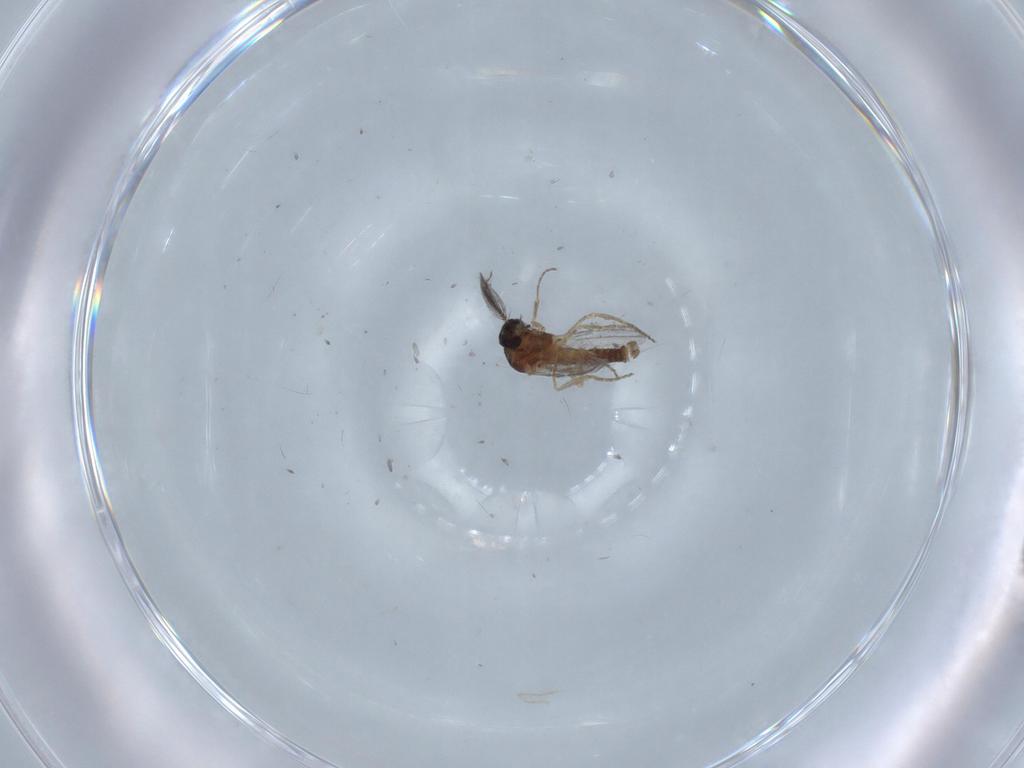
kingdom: Animalia
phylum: Arthropoda
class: Insecta
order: Diptera
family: Ceratopogonidae
